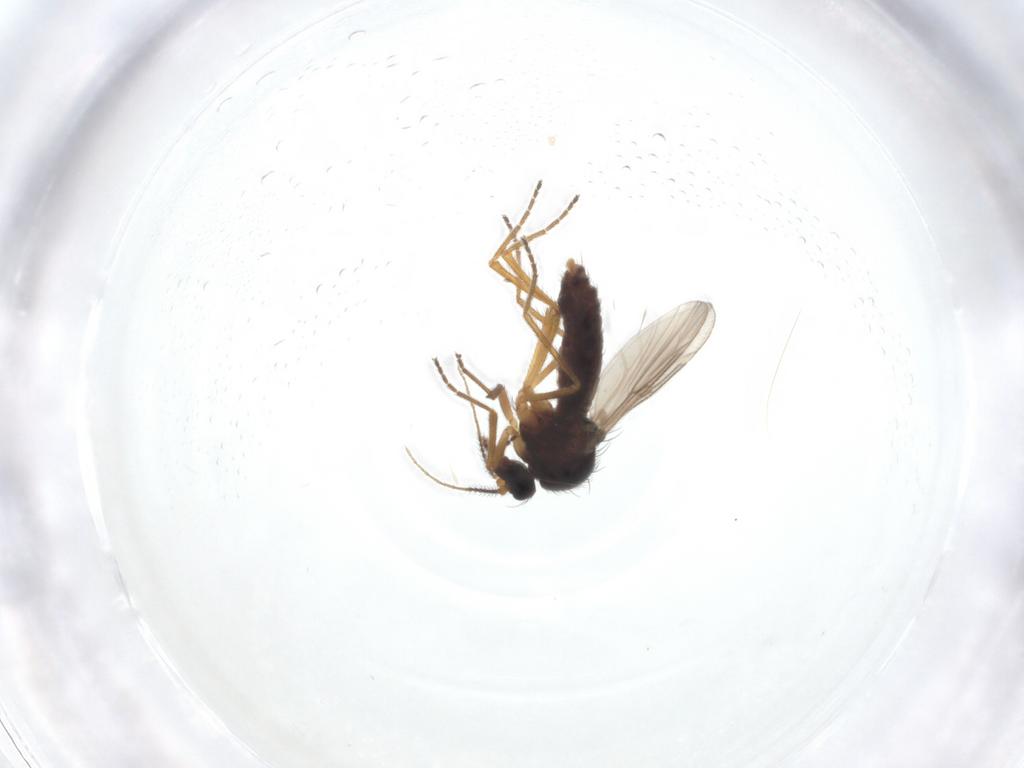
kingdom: Animalia
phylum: Arthropoda
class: Insecta
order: Diptera
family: Ceratopogonidae
